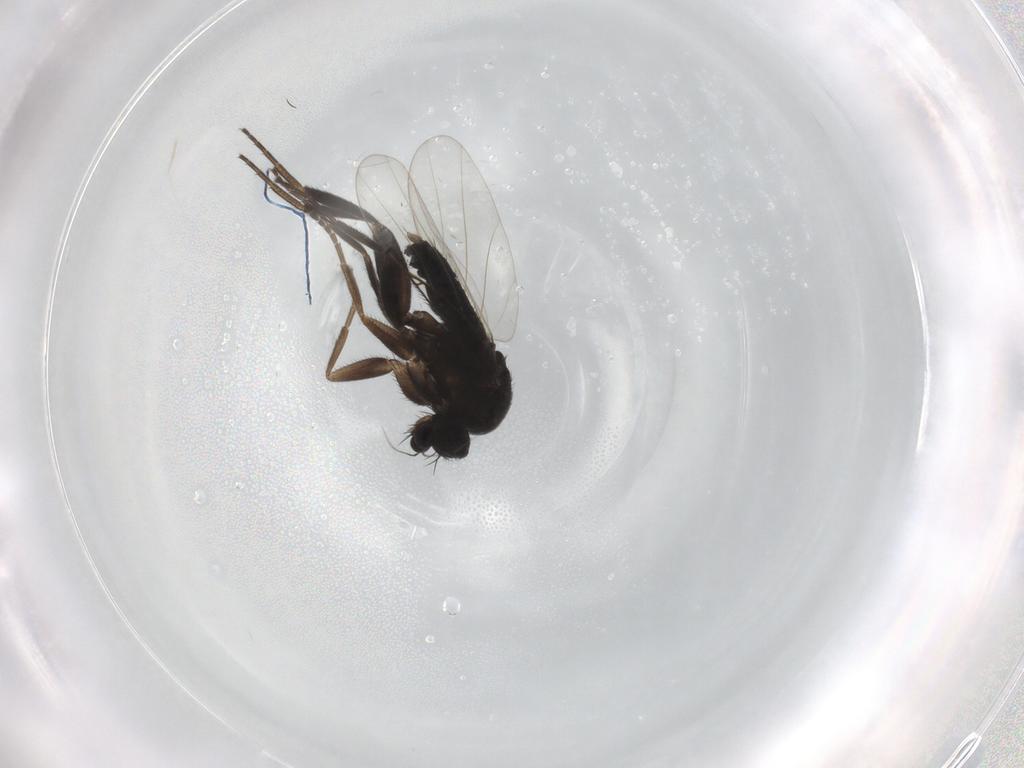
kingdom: Animalia
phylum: Arthropoda
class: Insecta
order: Diptera
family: Phoridae
